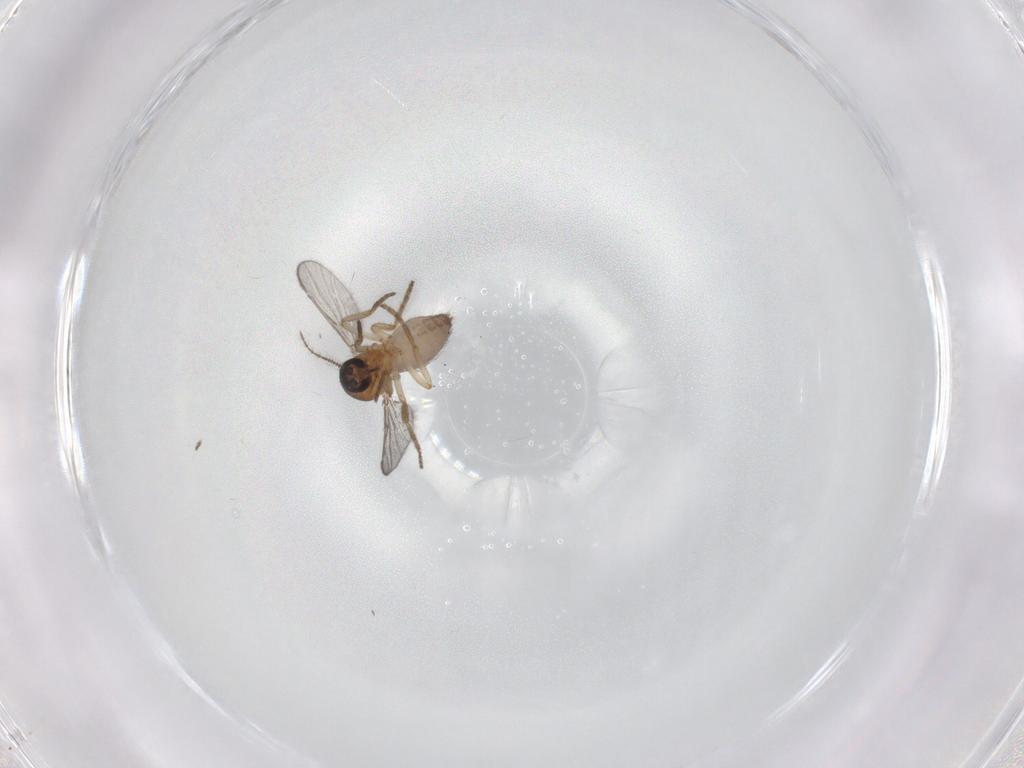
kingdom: Animalia
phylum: Arthropoda
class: Insecta
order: Diptera
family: Ceratopogonidae
